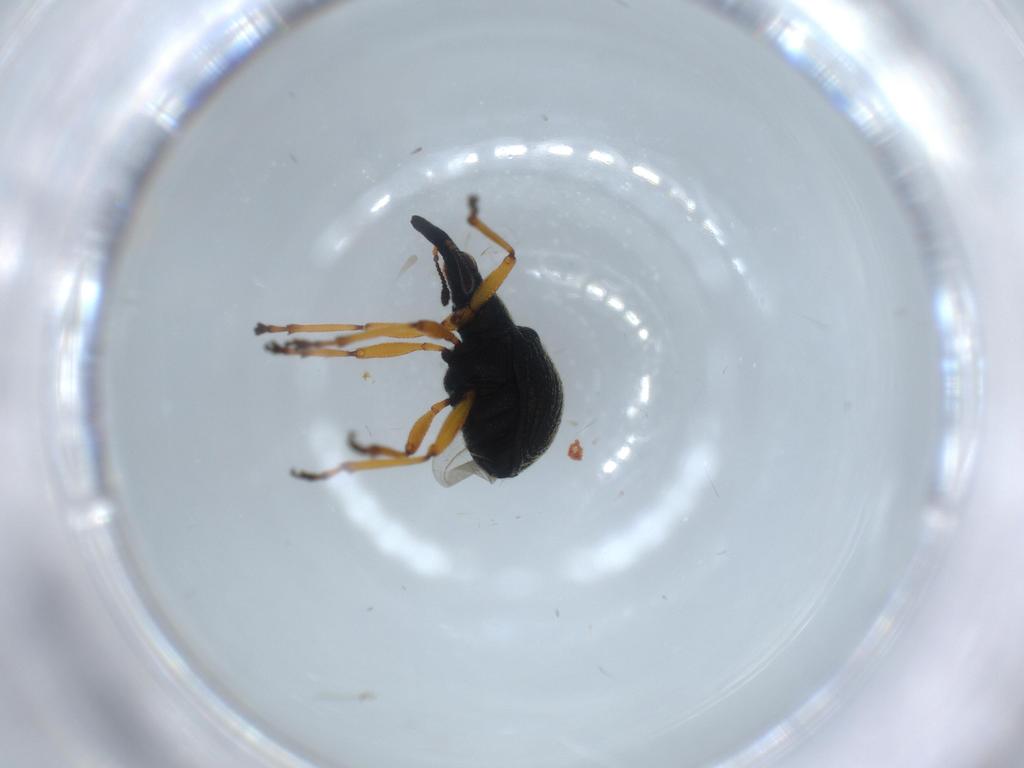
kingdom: Animalia
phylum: Arthropoda
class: Insecta
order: Coleoptera
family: Brentidae
